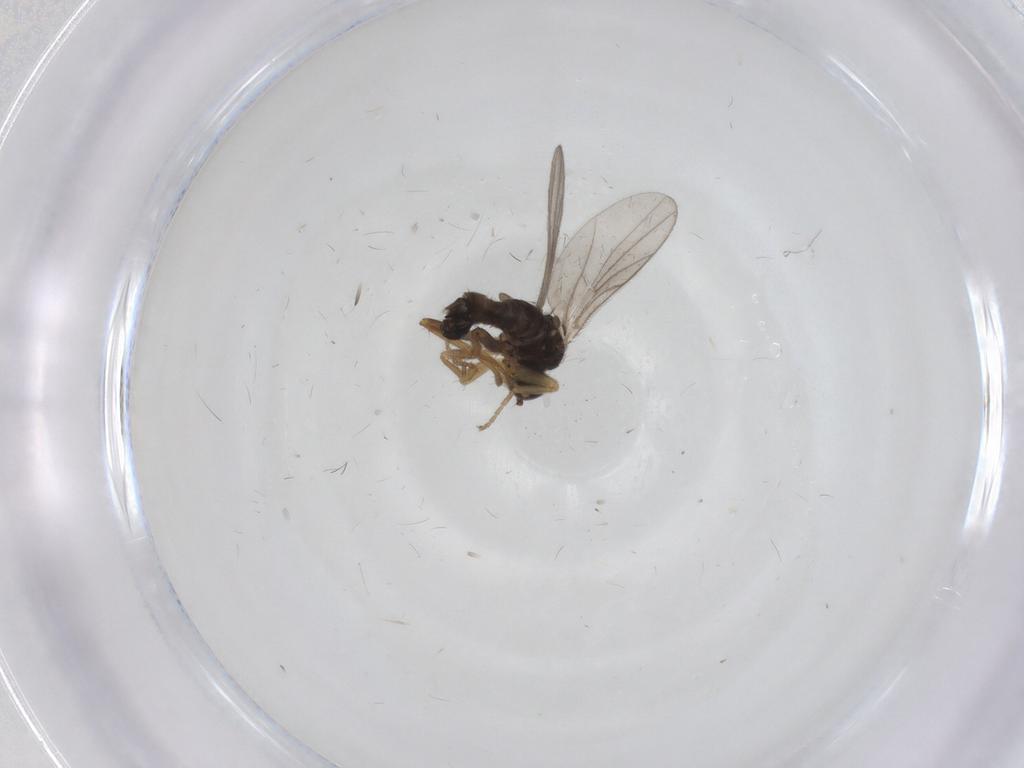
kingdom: Animalia
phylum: Arthropoda
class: Insecta
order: Diptera
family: Hybotidae
